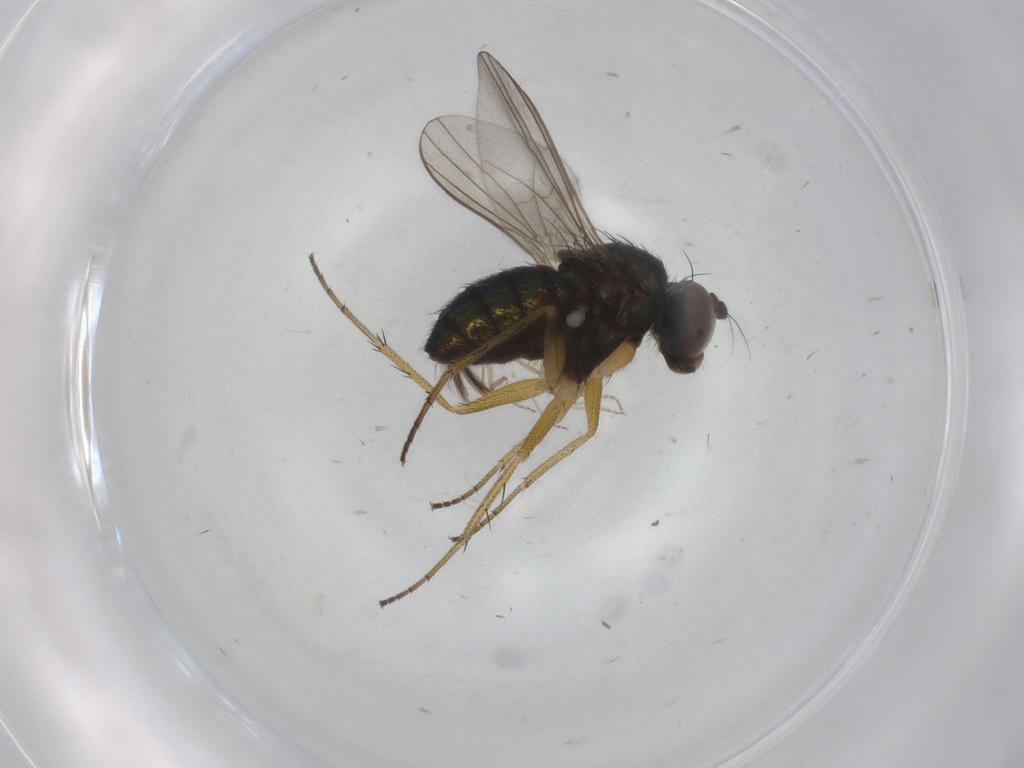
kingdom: Animalia
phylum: Arthropoda
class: Insecta
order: Diptera
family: Ceratopogonidae
